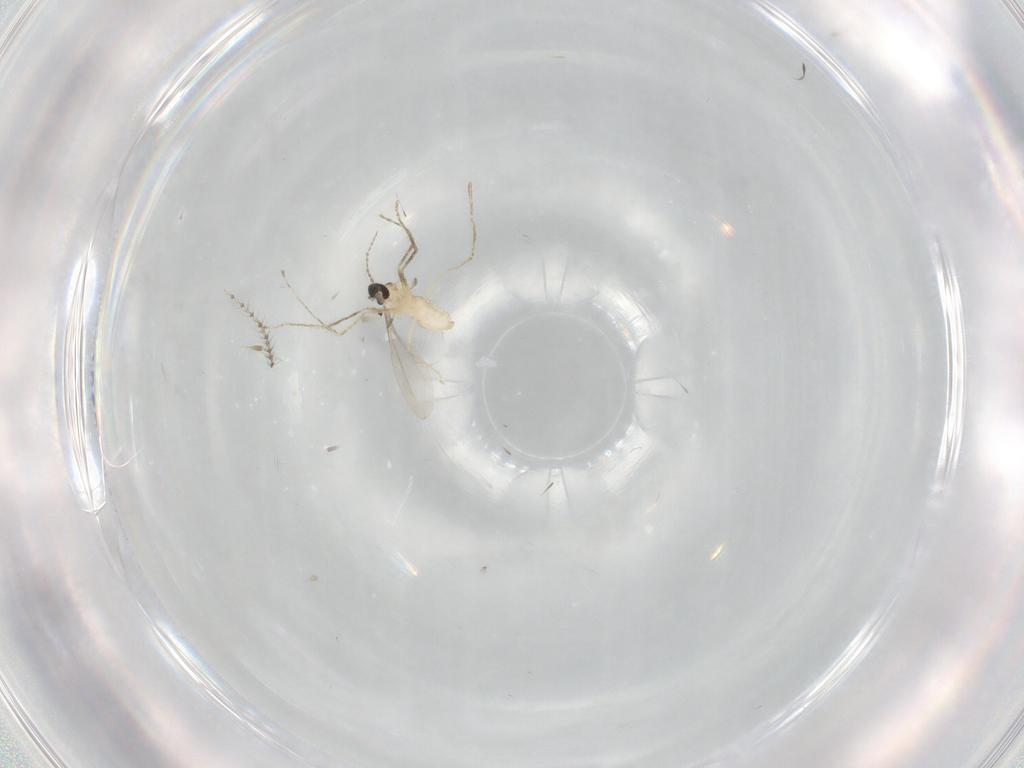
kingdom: Animalia
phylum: Arthropoda
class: Insecta
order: Diptera
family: Cecidomyiidae
